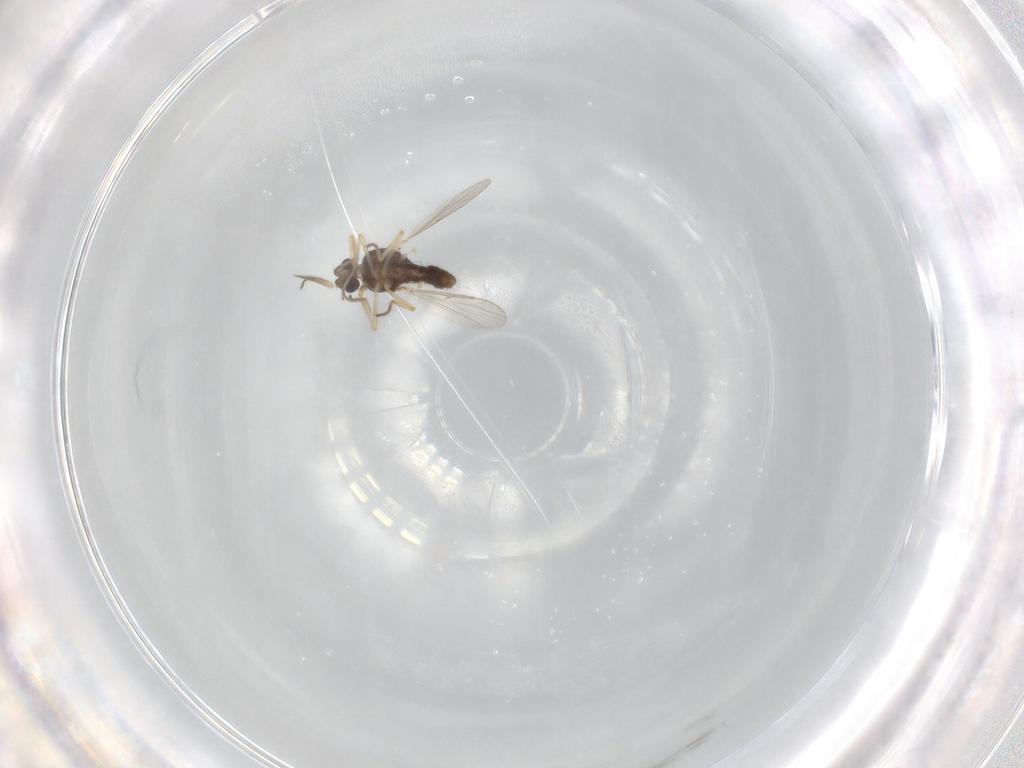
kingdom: Animalia
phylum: Arthropoda
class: Insecta
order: Diptera
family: Ceratopogonidae
